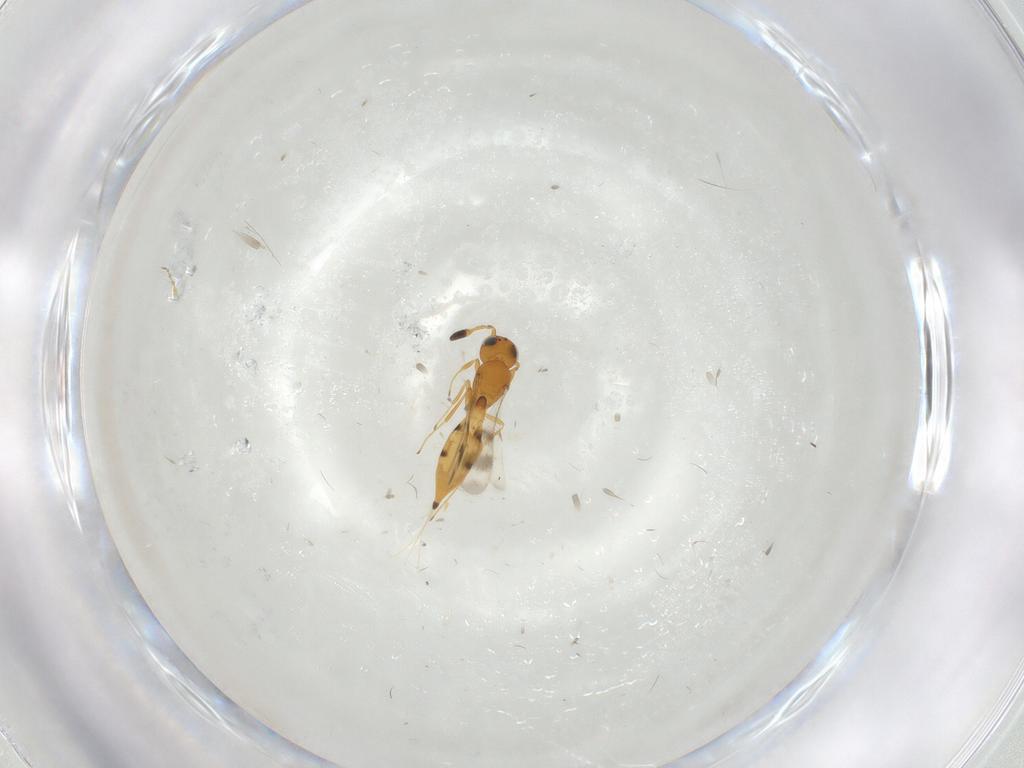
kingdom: Animalia
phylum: Arthropoda
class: Insecta
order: Hymenoptera
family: Scelionidae
